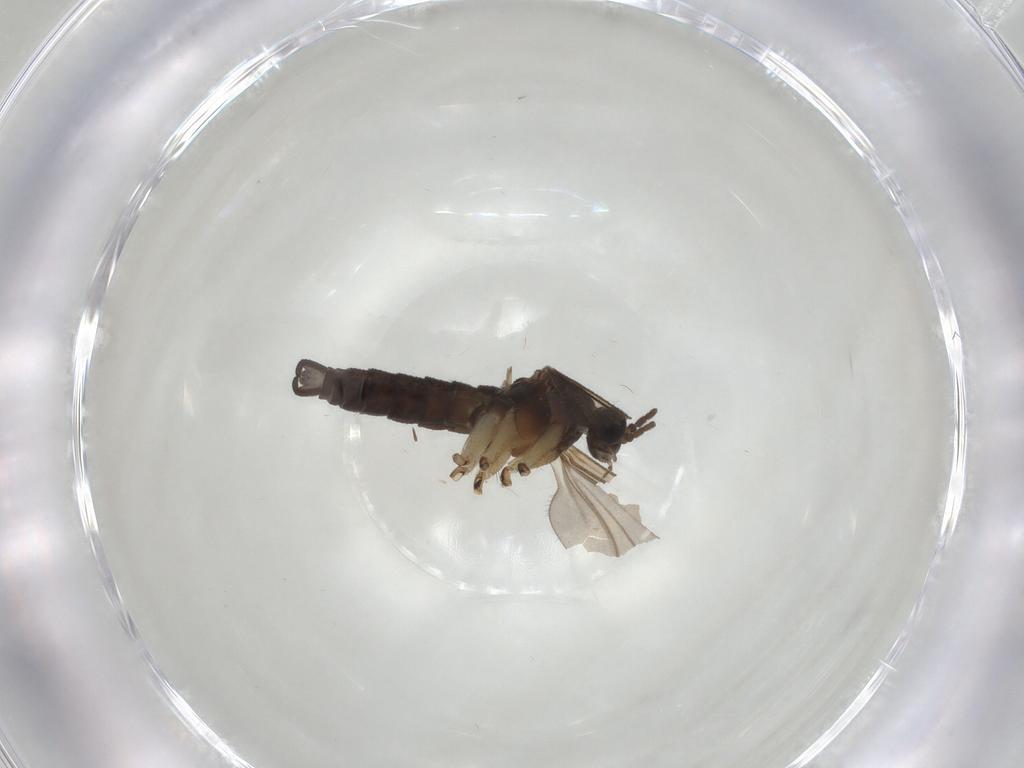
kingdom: Animalia
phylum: Arthropoda
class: Insecta
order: Diptera
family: Sciaridae
